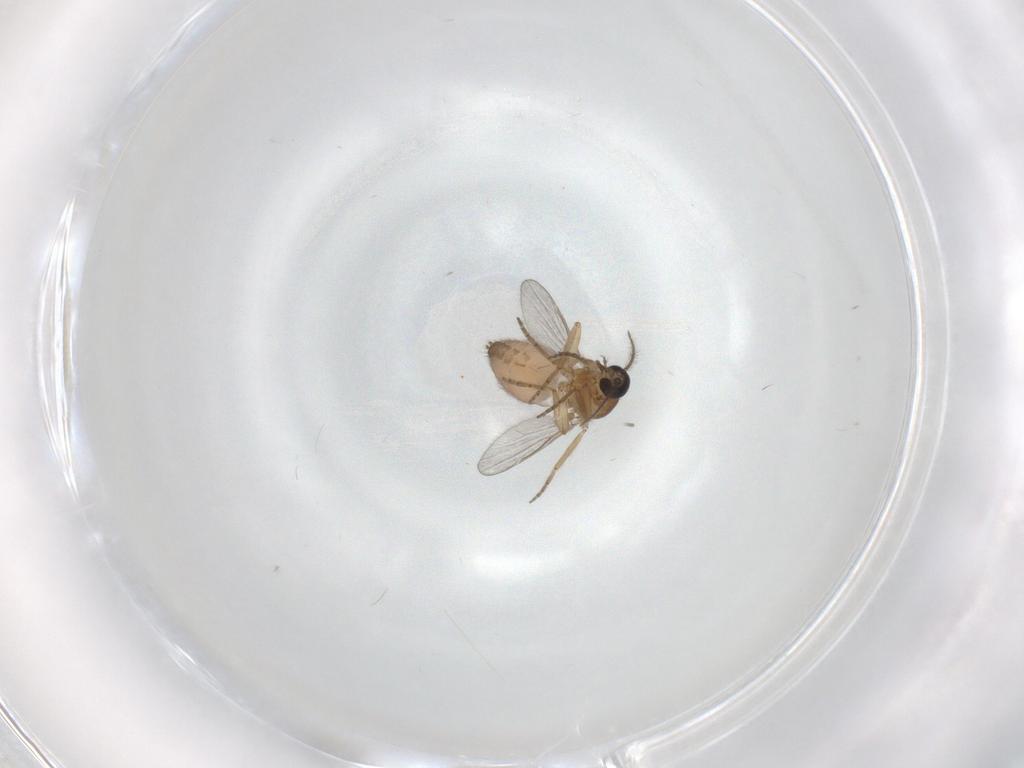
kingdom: Animalia
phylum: Arthropoda
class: Insecta
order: Diptera
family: Ceratopogonidae
